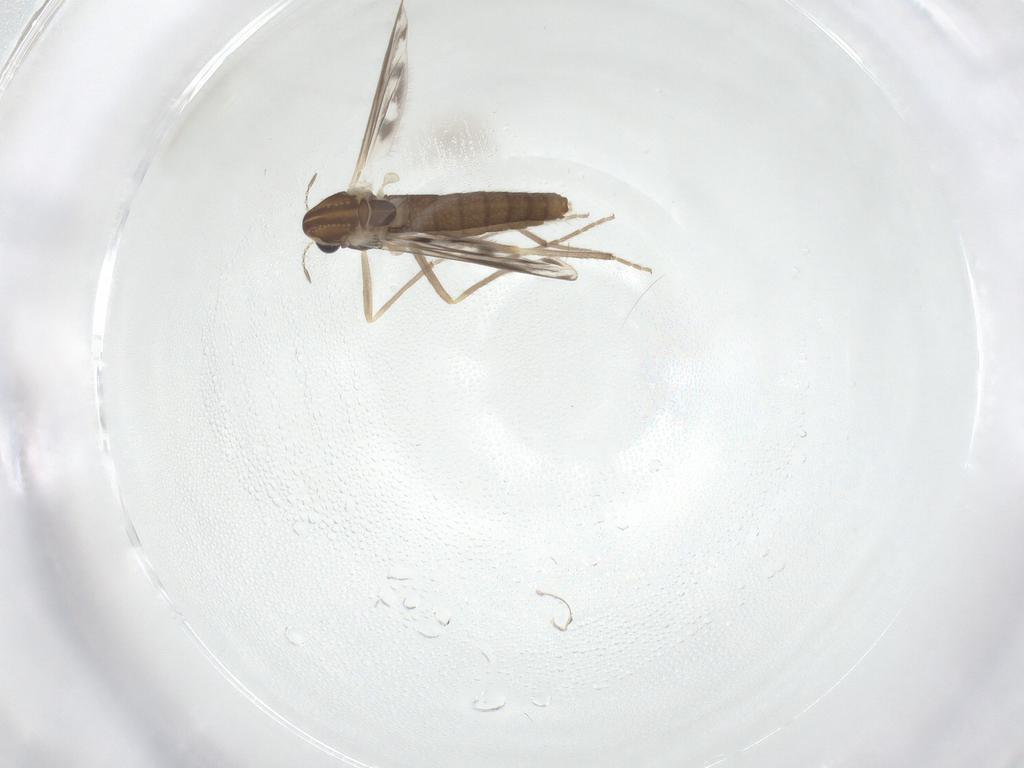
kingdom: Animalia
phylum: Arthropoda
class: Insecta
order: Diptera
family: Chironomidae
